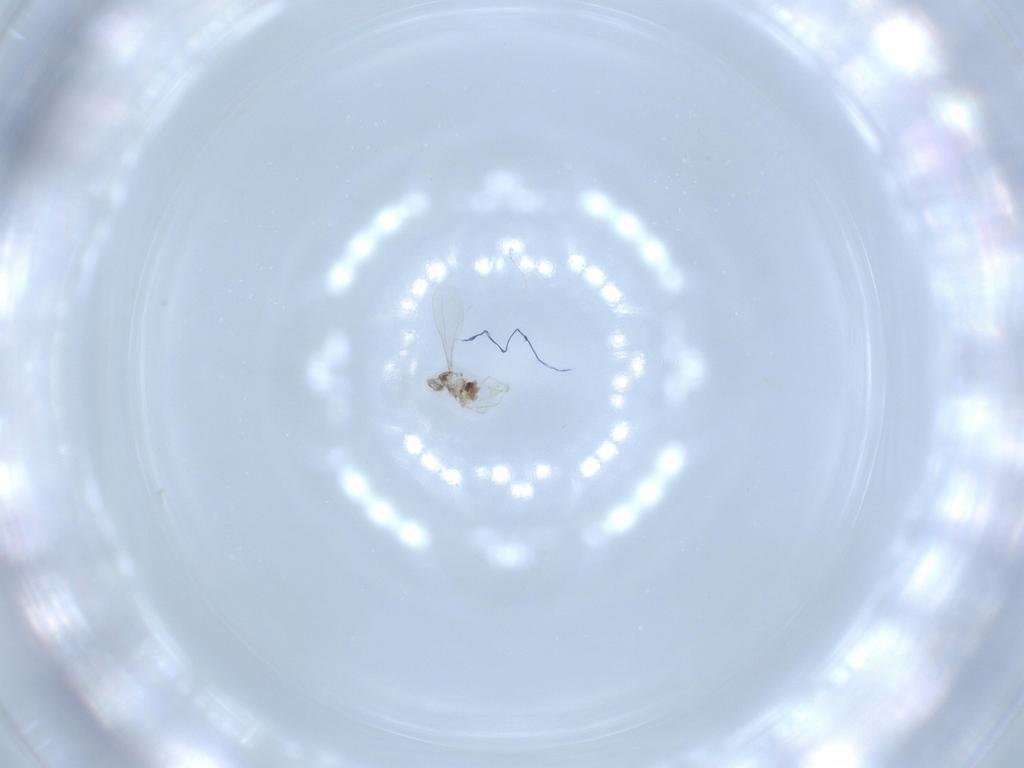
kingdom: Animalia
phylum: Arthropoda
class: Insecta
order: Diptera
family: Cecidomyiidae
